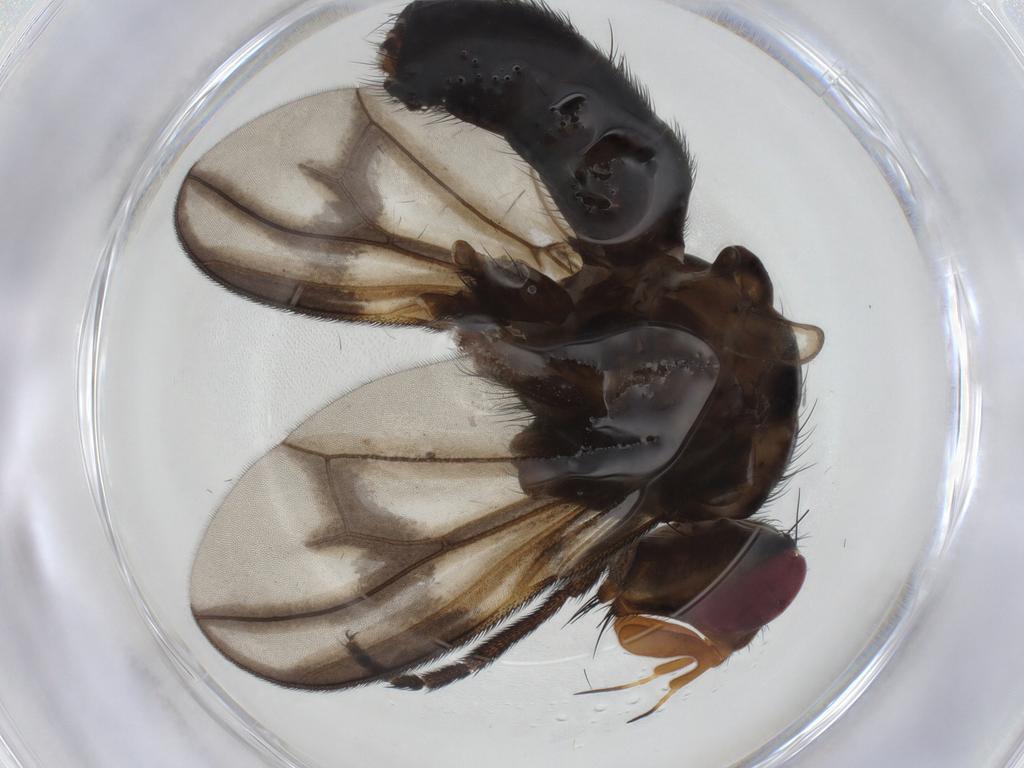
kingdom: Animalia
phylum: Arthropoda
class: Insecta
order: Diptera
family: Calliphoridae
